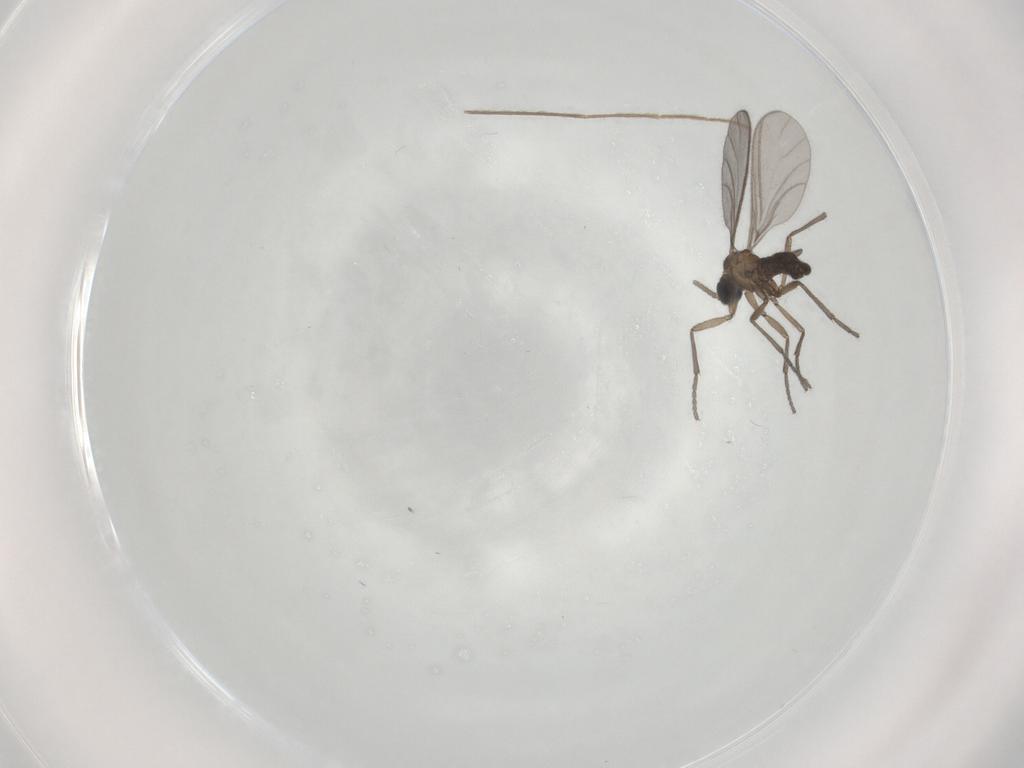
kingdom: Animalia
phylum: Arthropoda
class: Insecta
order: Diptera
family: Sciaridae
